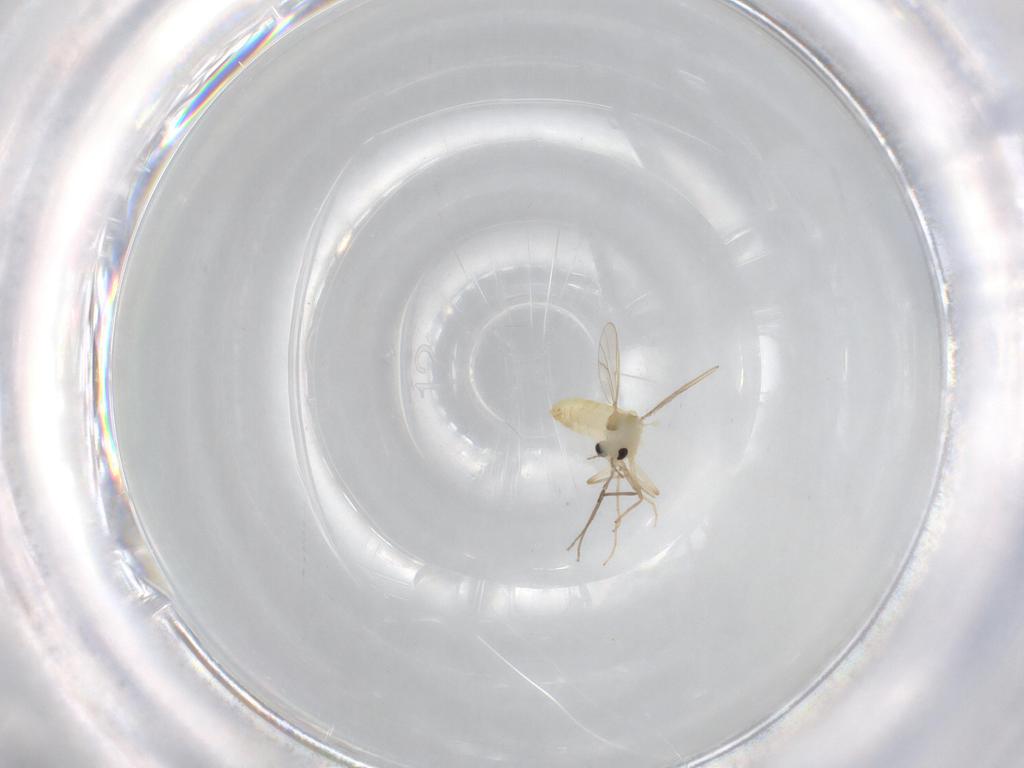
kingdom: Animalia
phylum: Arthropoda
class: Insecta
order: Diptera
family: Chironomidae
